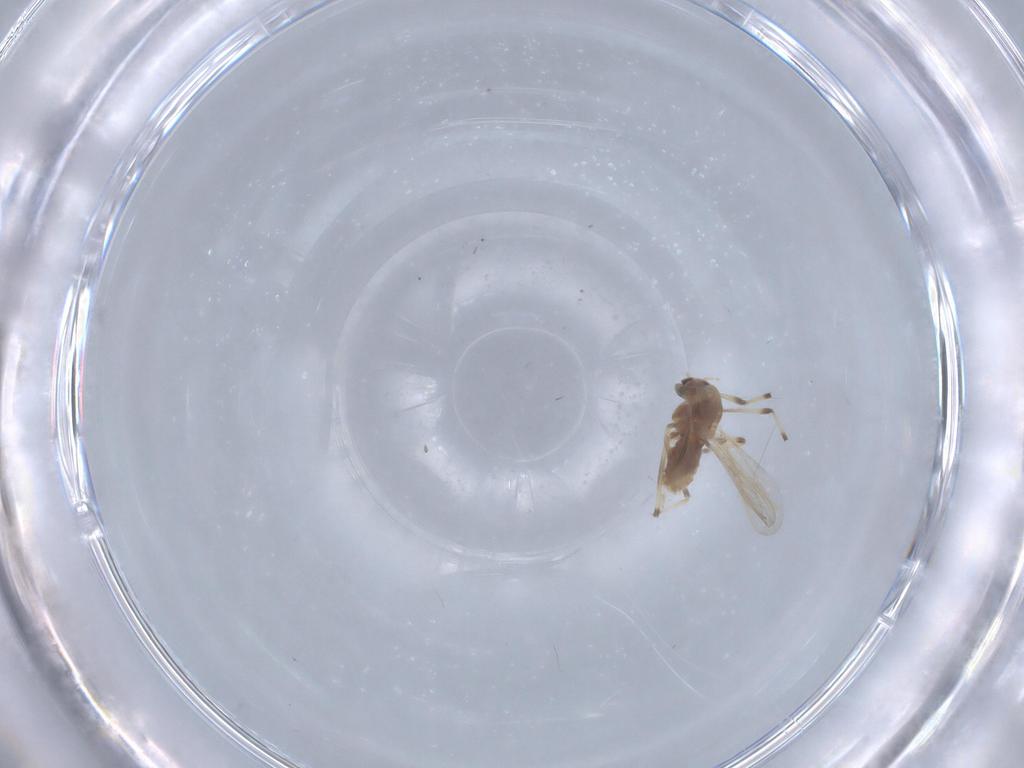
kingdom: Animalia
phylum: Arthropoda
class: Insecta
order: Diptera
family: Chironomidae
